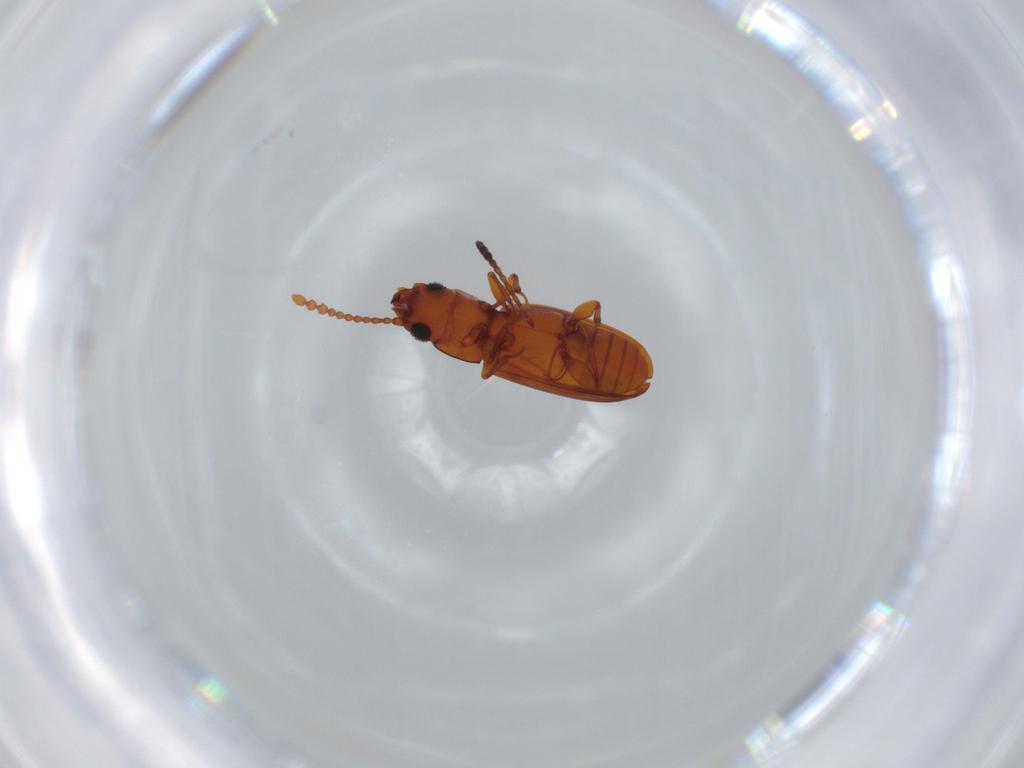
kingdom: Animalia
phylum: Arthropoda
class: Insecta
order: Coleoptera
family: Laemophloeidae
